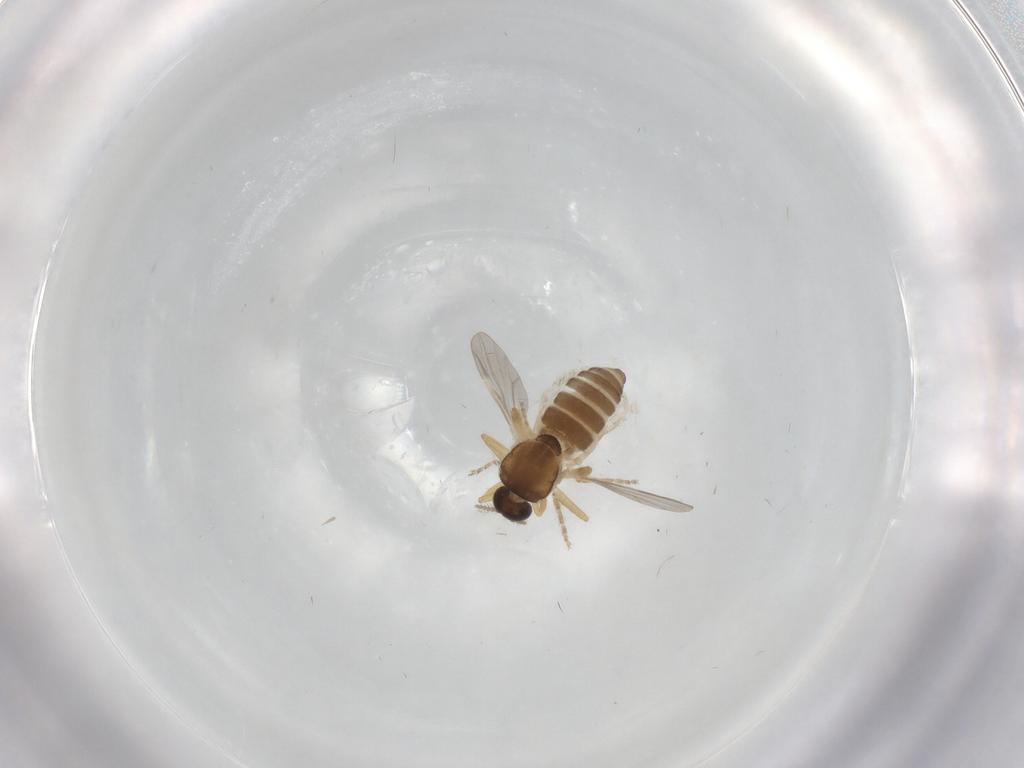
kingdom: Animalia
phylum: Arthropoda
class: Insecta
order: Diptera
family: Ceratopogonidae
